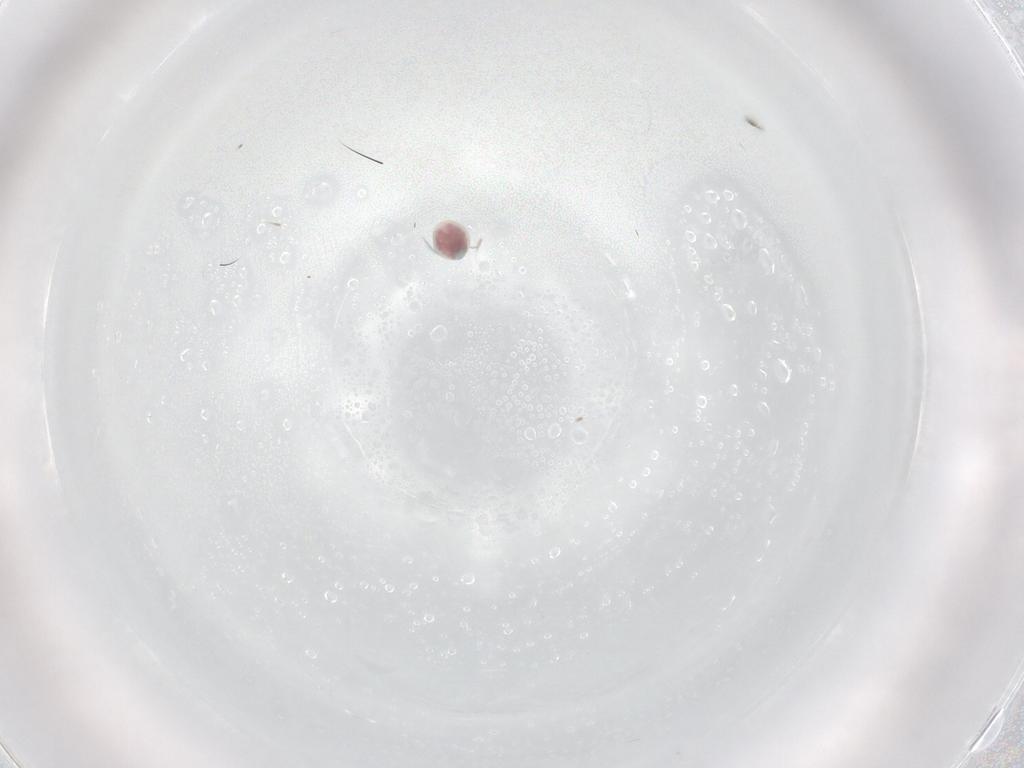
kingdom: Animalia
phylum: Arthropoda
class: Arachnida
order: Trombidiformes
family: Unionicolidae
